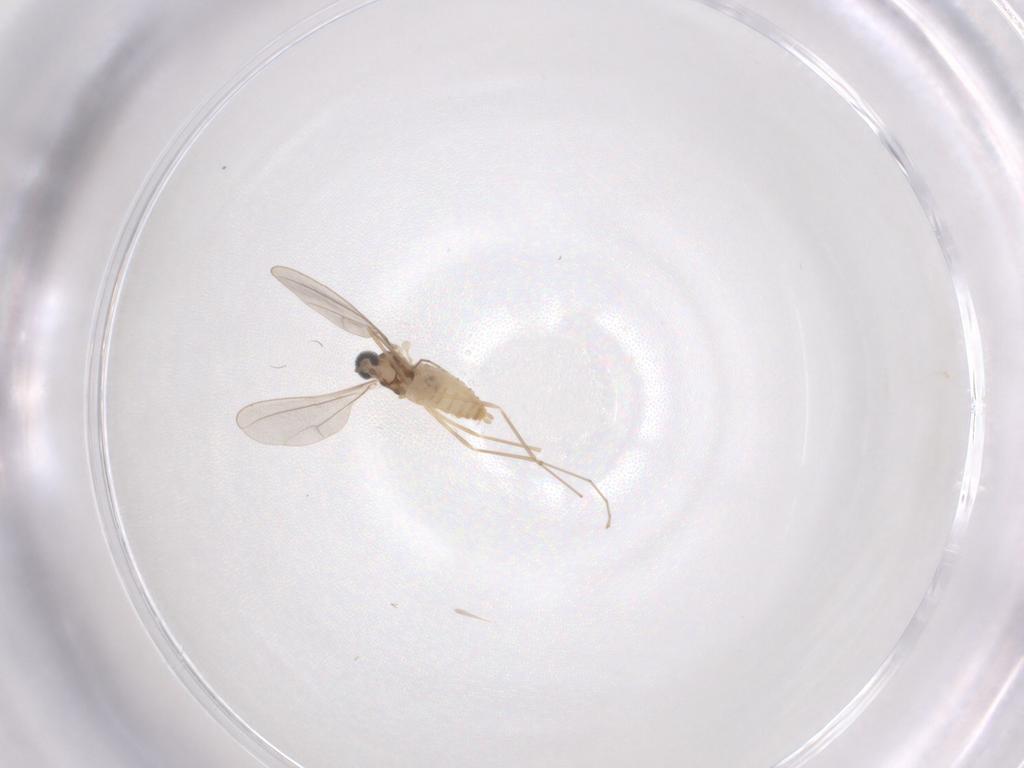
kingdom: Animalia
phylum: Arthropoda
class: Insecta
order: Diptera
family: Cecidomyiidae
